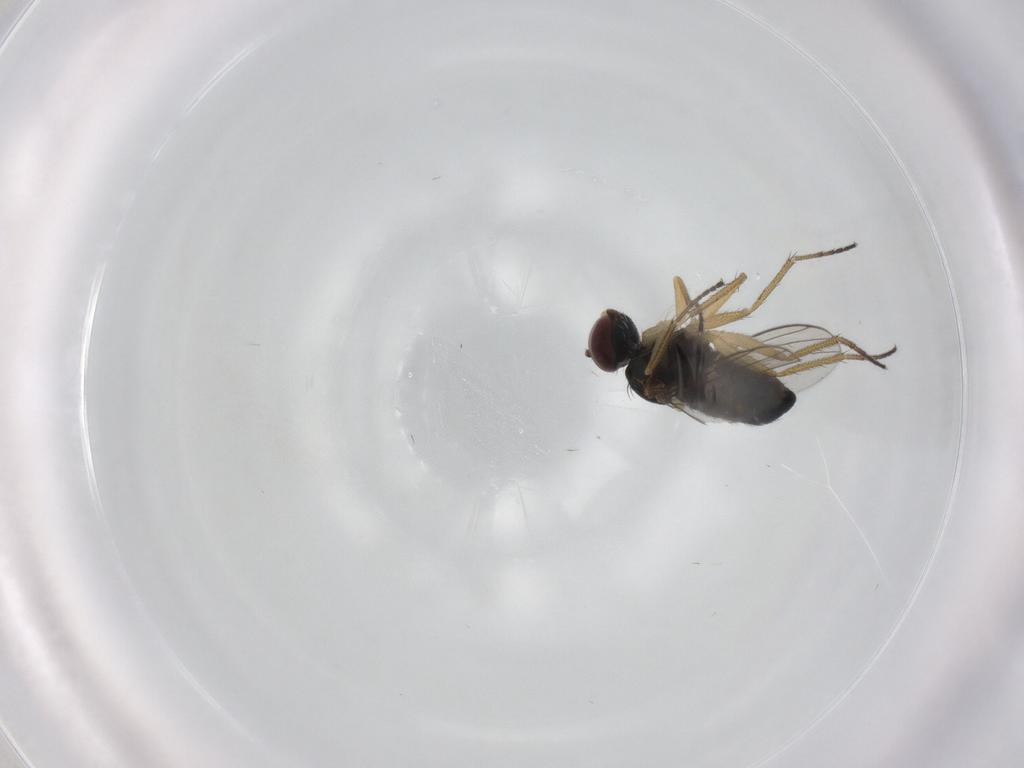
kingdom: Animalia
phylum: Arthropoda
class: Insecta
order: Diptera
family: Dolichopodidae
